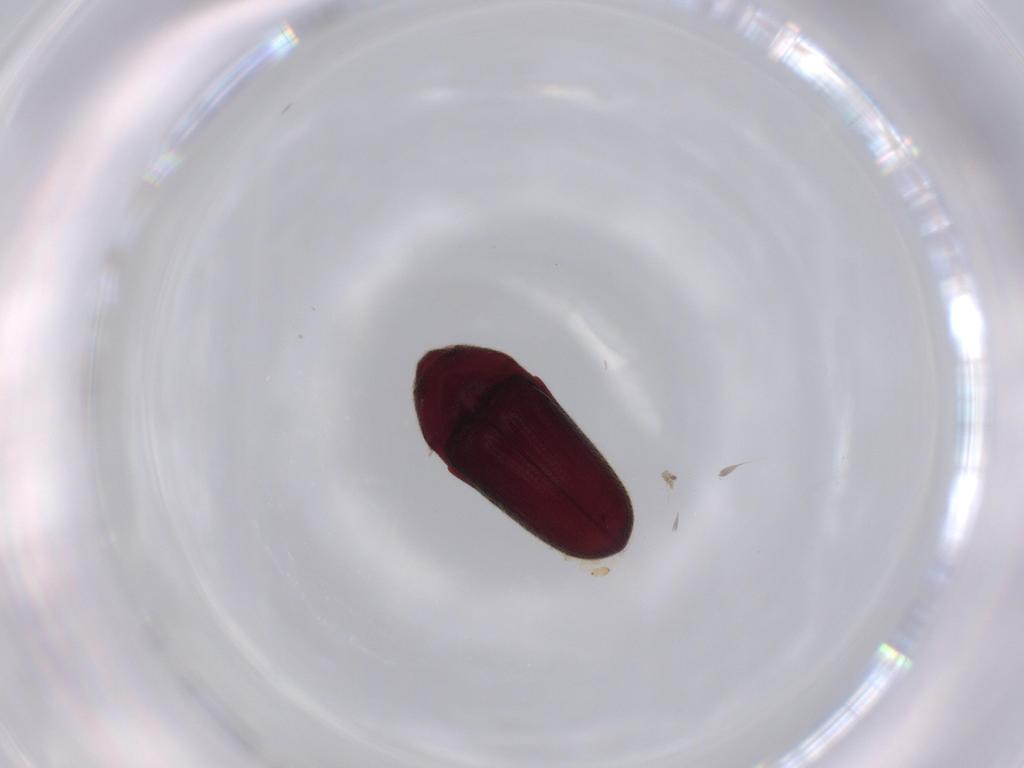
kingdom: Animalia
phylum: Arthropoda
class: Insecta
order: Coleoptera
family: Throscidae
